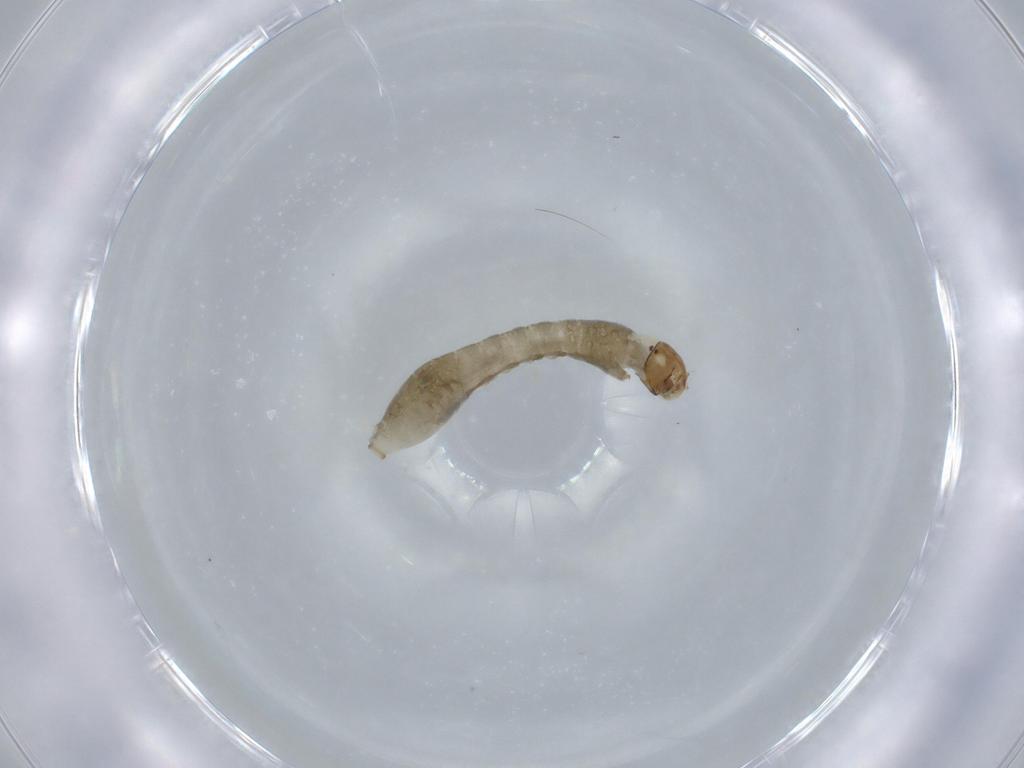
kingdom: Animalia
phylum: Arthropoda
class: Insecta
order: Diptera
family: Simuliidae
